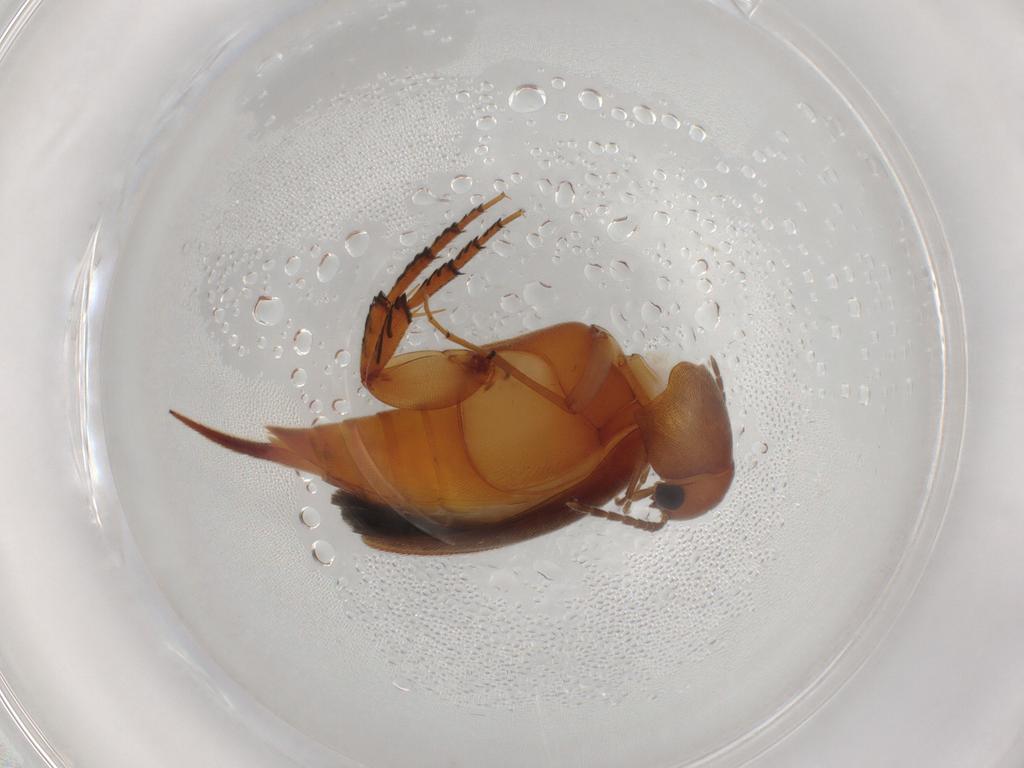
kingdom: Animalia
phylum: Arthropoda
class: Insecta
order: Coleoptera
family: Mordellidae
